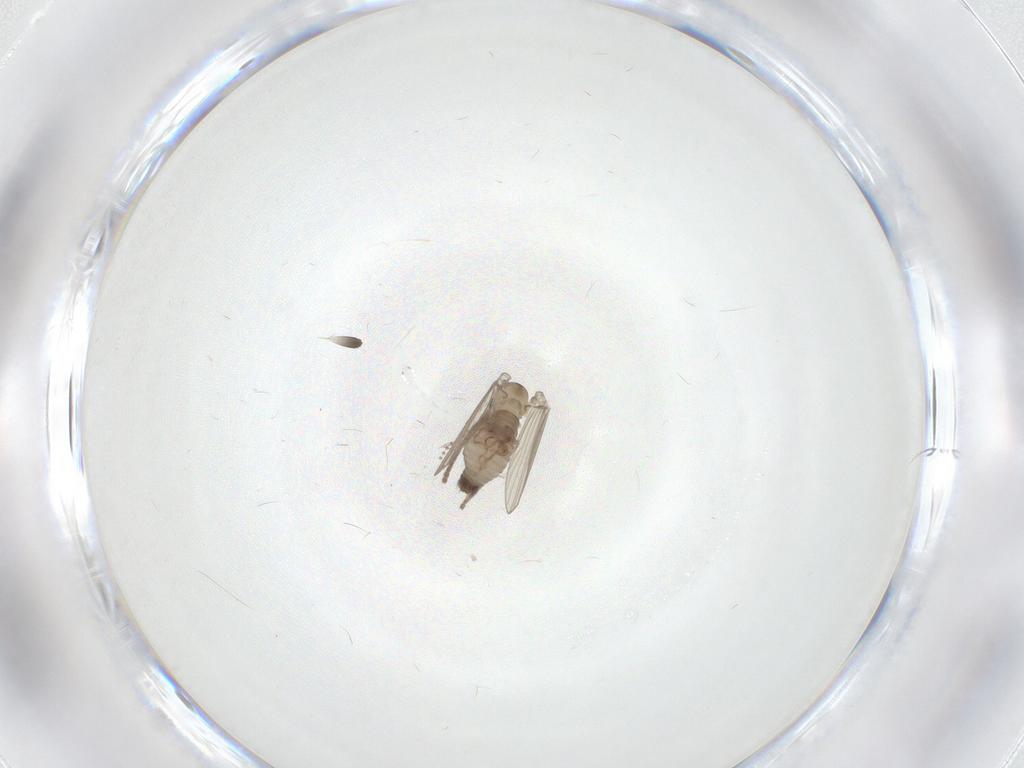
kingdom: Animalia
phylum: Arthropoda
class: Insecta
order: Diptera
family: Psychodidae
